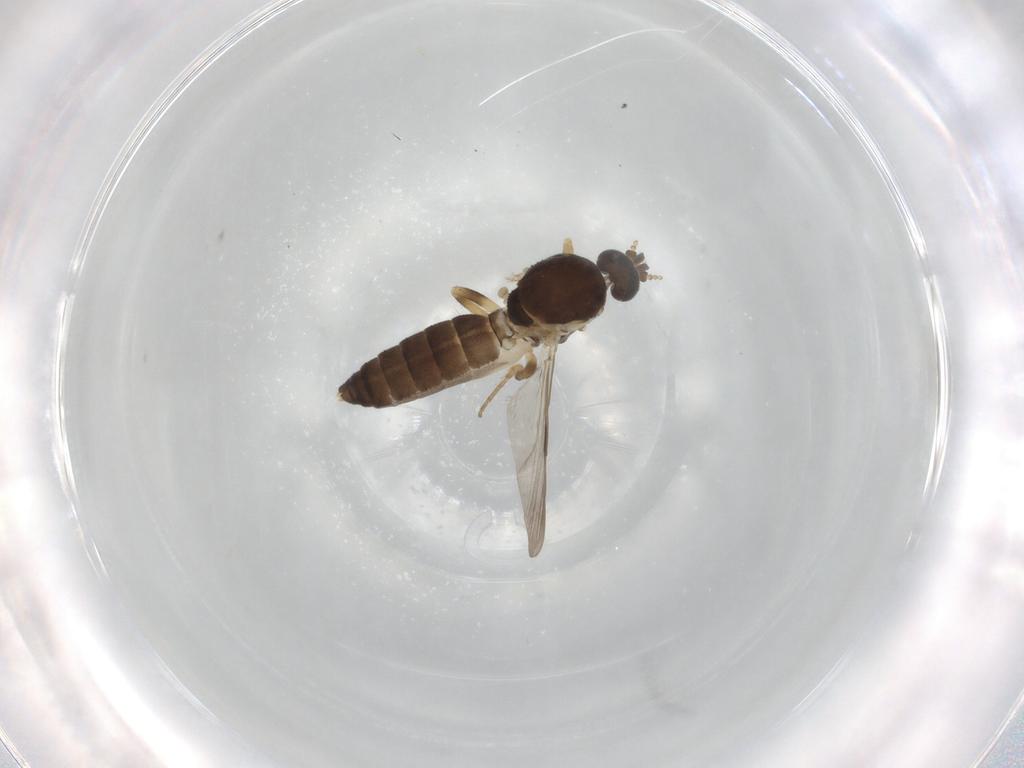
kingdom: Animalia
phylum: Arthropoda
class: Insecta
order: Diptera
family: Ceratopogonidae
